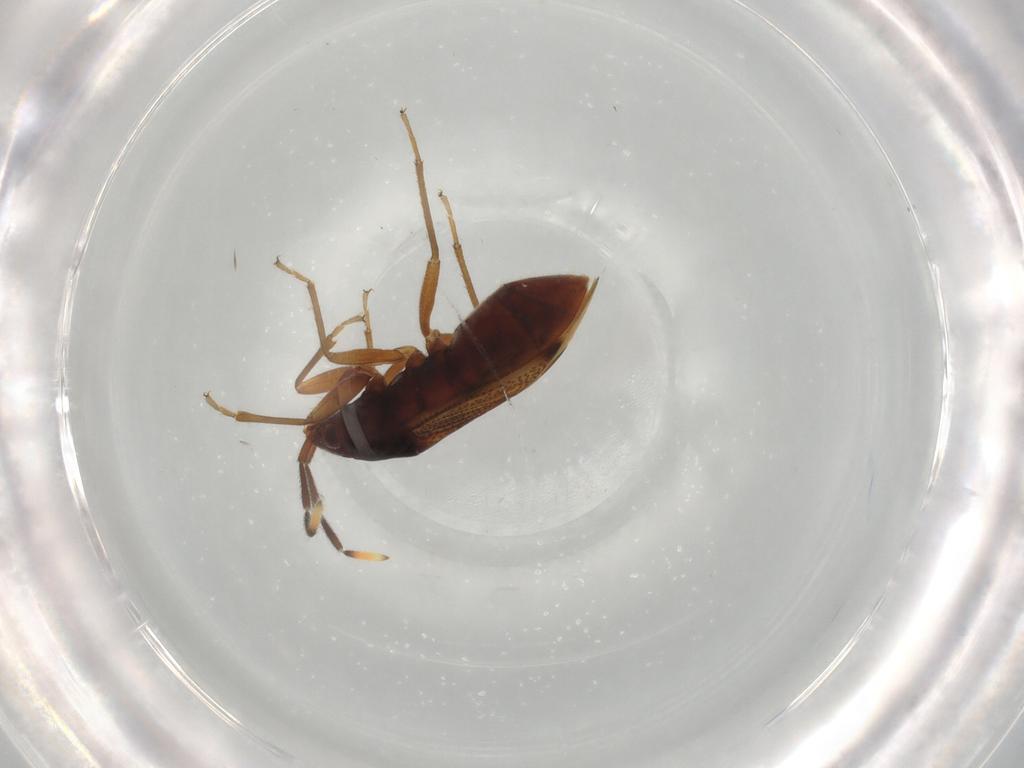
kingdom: Animalia
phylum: Arthropoda
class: Insecta
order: Hemiptera
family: Rhyparochromidae
